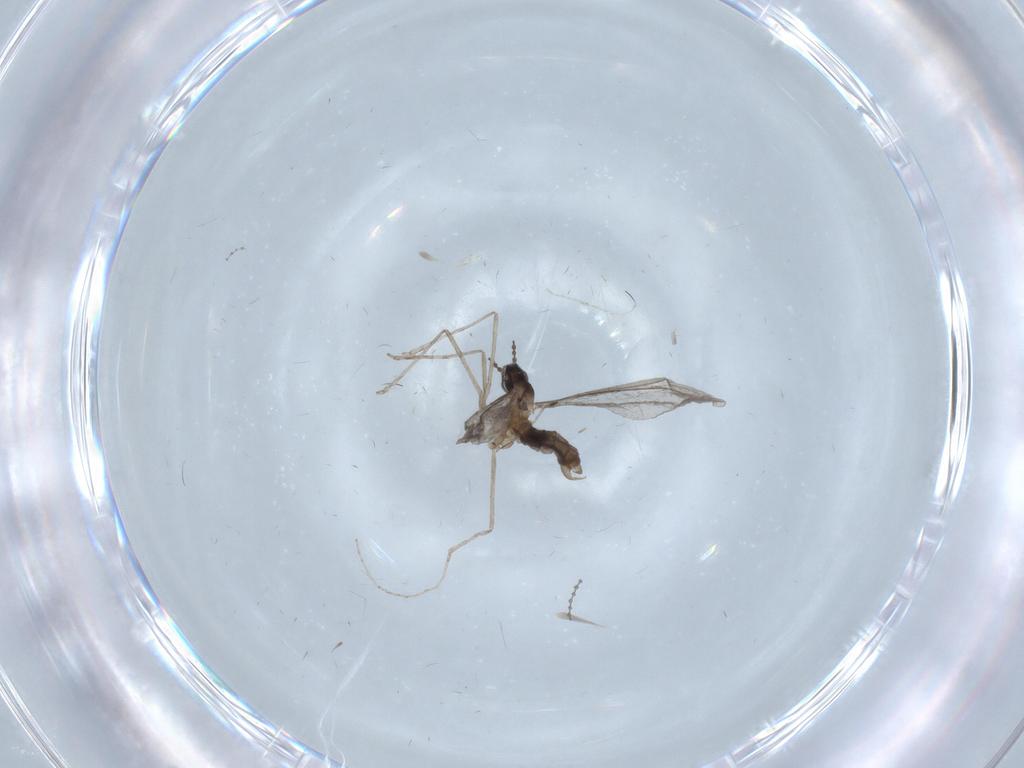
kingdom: Animalia
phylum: Arthropoda
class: Insecta
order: Diptera
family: Cecidomyiidae
